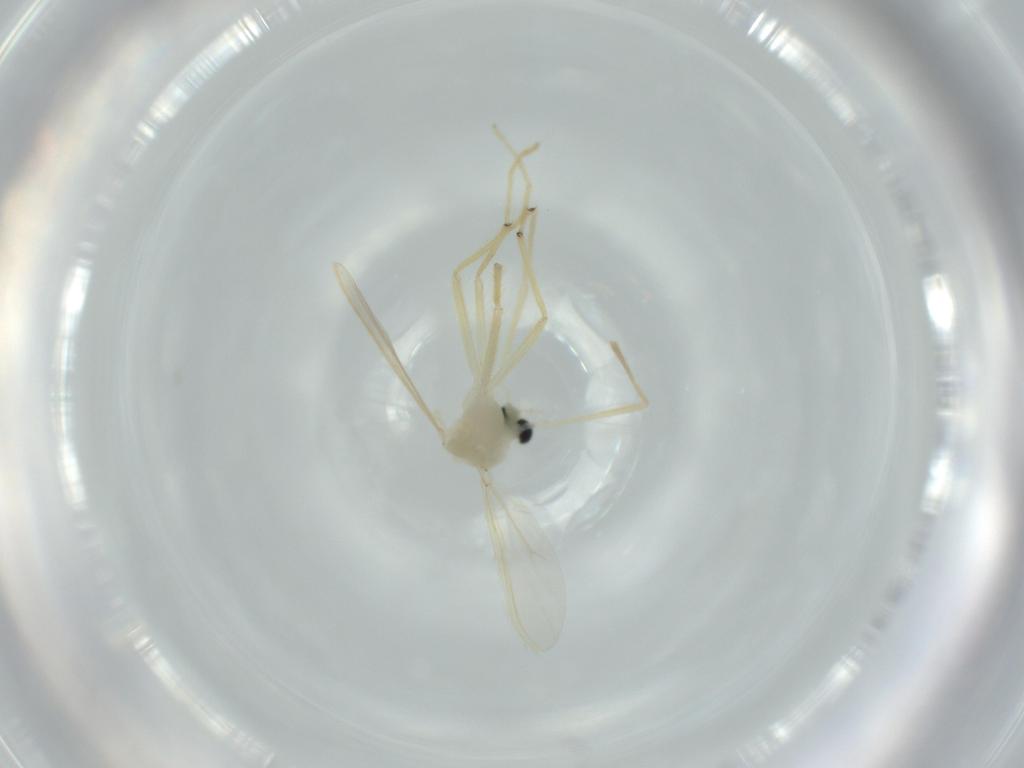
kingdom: Animalia
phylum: Arthropoda
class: Insecta
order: Diptera
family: Chironomidae
